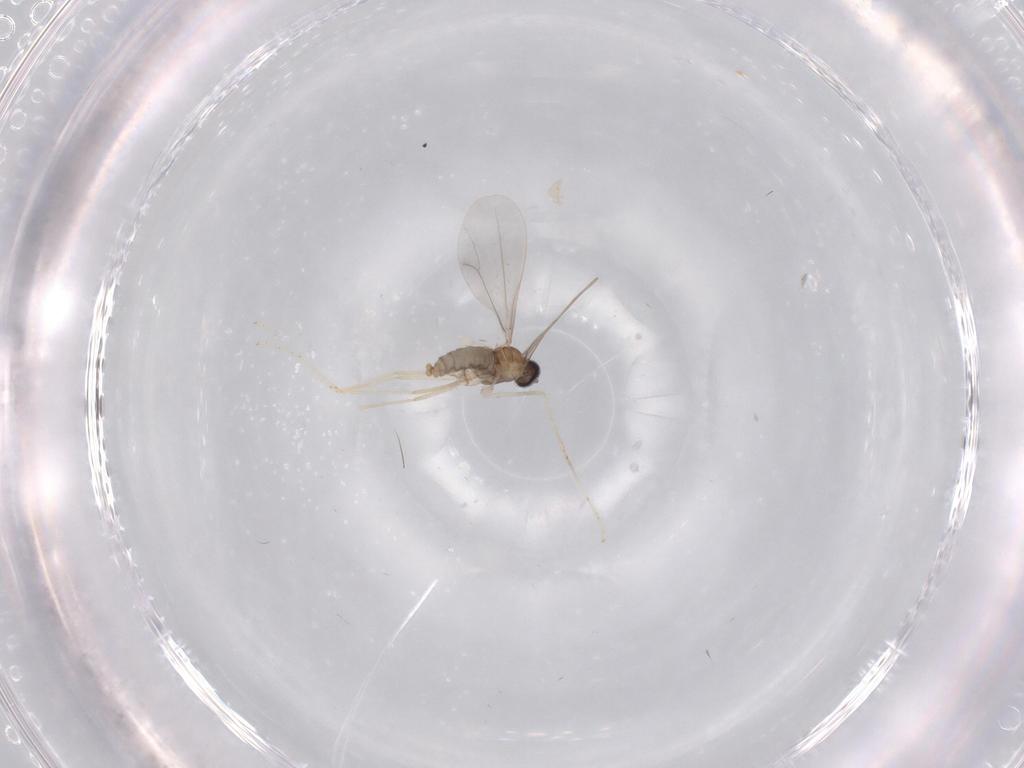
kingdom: Animalia
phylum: Arthropoda
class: Insecta
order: Diptera
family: Cecidomyiidae
